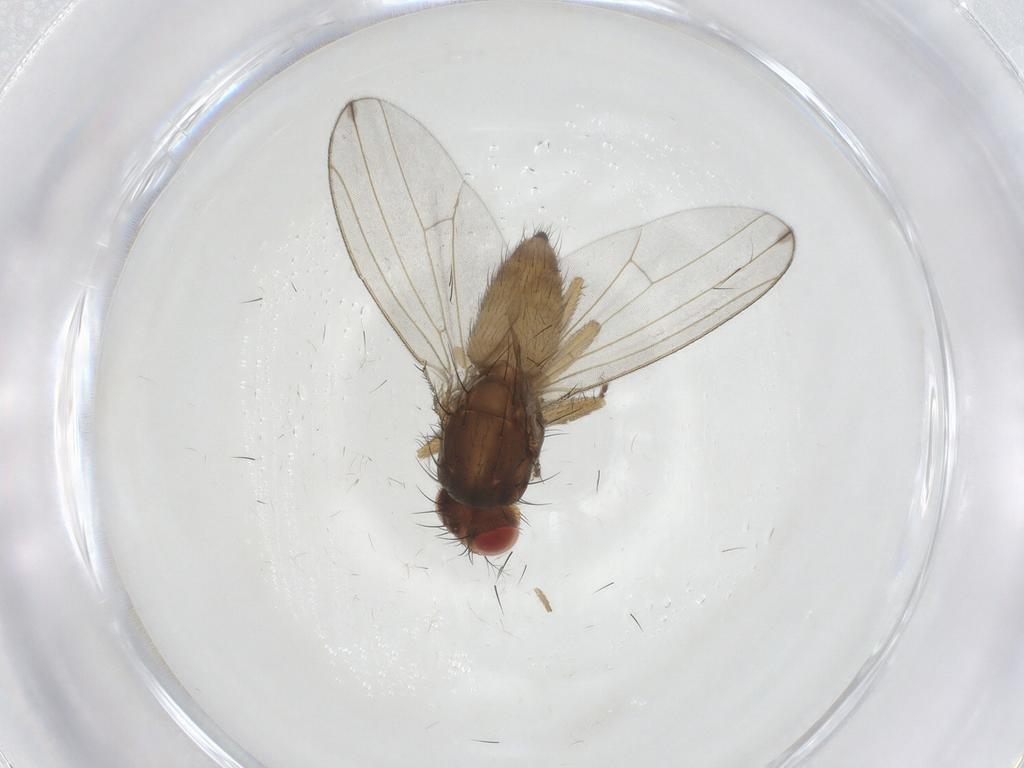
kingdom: Animalia
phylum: Arthropoda
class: Insecta
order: Diptera
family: Drosophilidae
